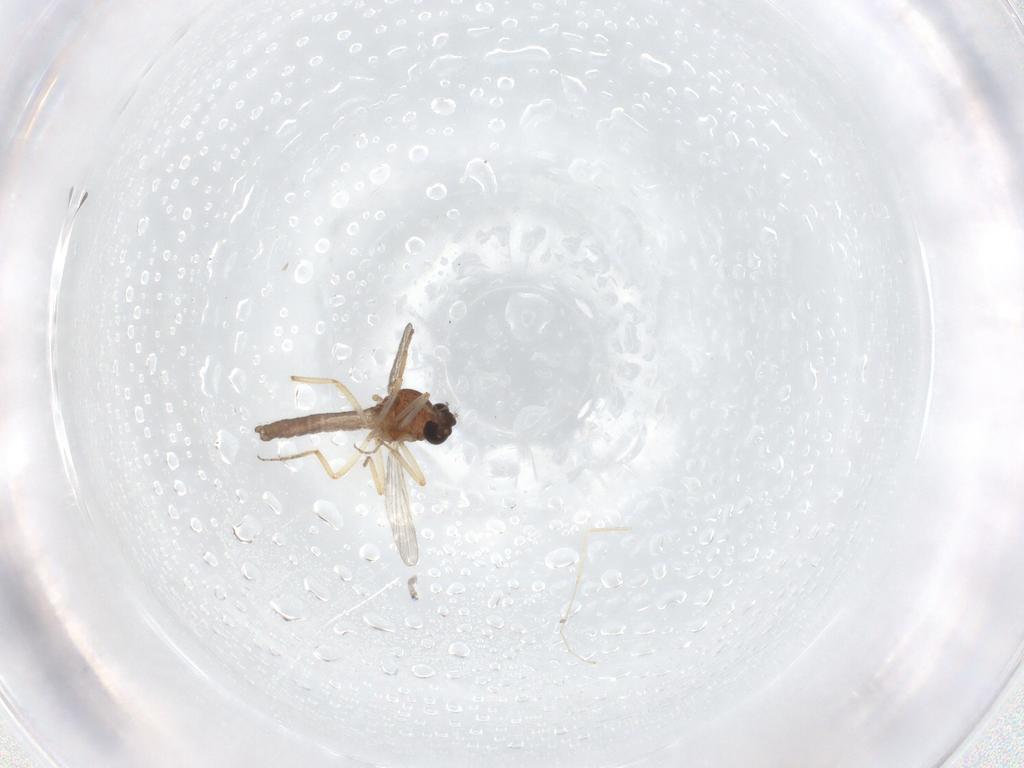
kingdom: Animalia
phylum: Arthropoda
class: Insecta
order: Diptera
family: Ceratopogonidae
